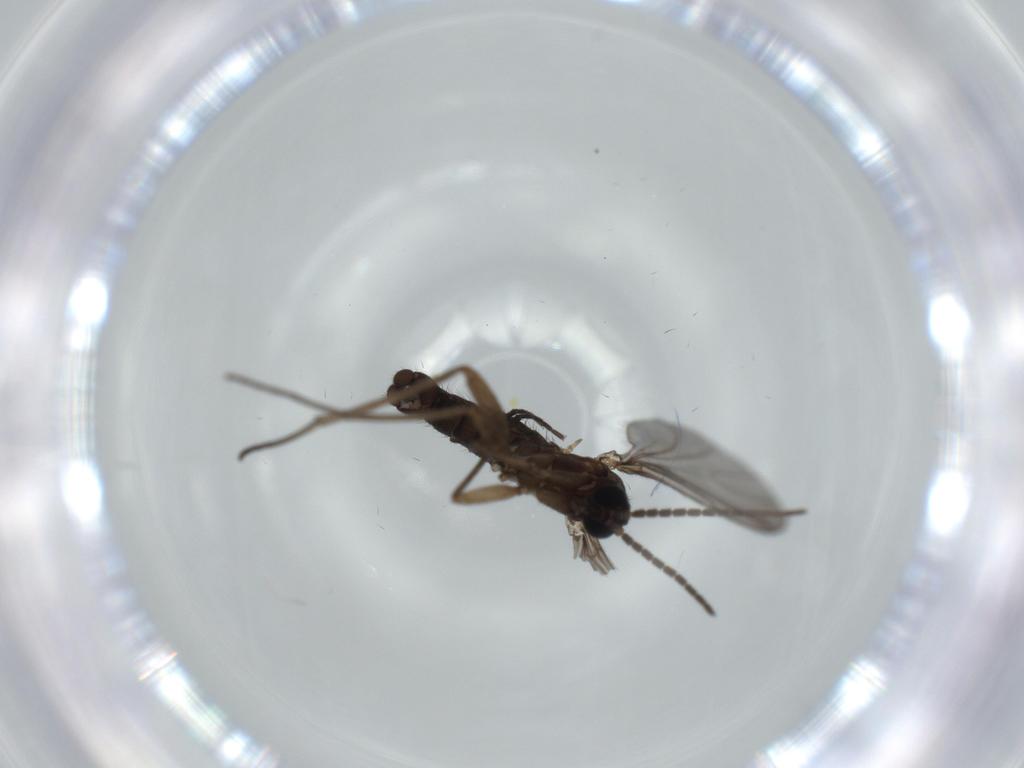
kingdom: Animalia
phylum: Arthropoda
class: Insecta
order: Diptera
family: Sciaridae
